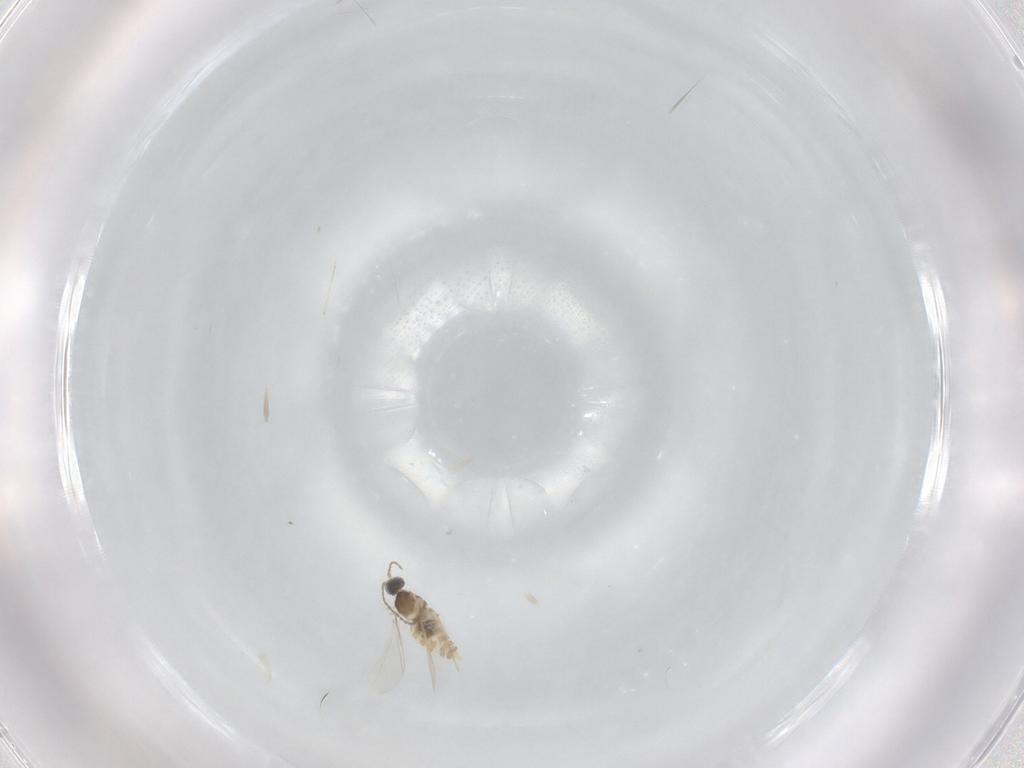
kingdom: Animalia
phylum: Arthropoda
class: Insecta
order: Diptera
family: Cecidomyiidae
